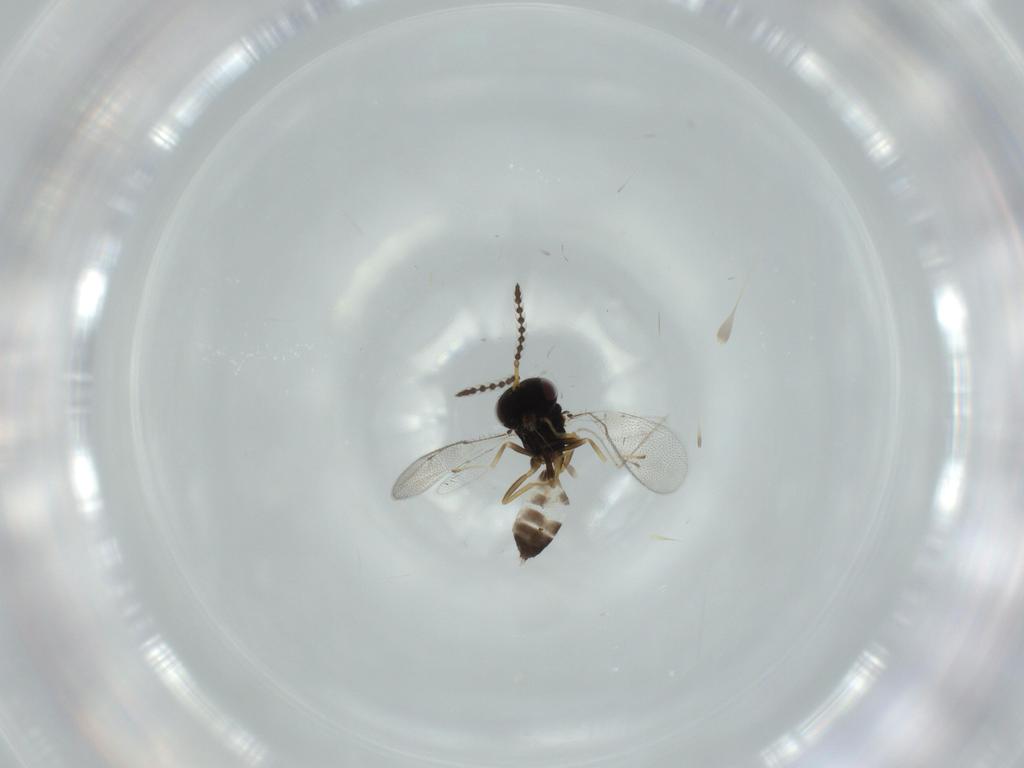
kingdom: Animalia
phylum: Arthropoda
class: Insecta
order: Hymenoptera
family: Pteromalidae
